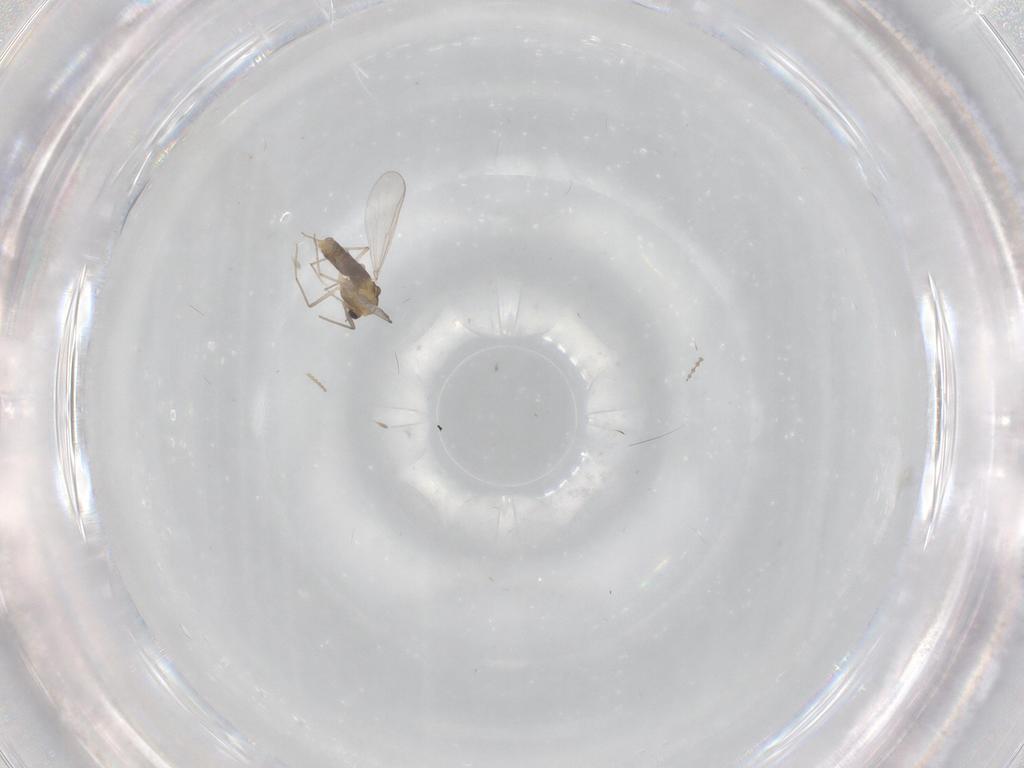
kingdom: Animalia
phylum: Arthropoda
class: Insecta
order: Diptera
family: Chironomidae
